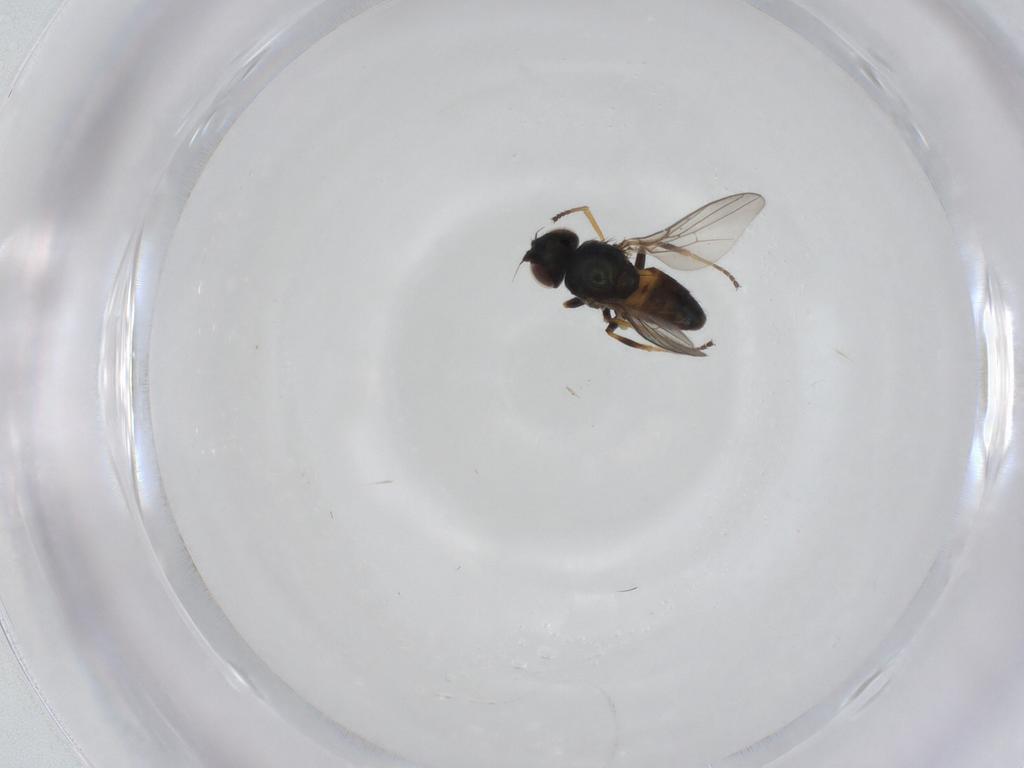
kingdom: Animalia
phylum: Arthropoda
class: Insecta
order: Diptera
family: Chloropidae
